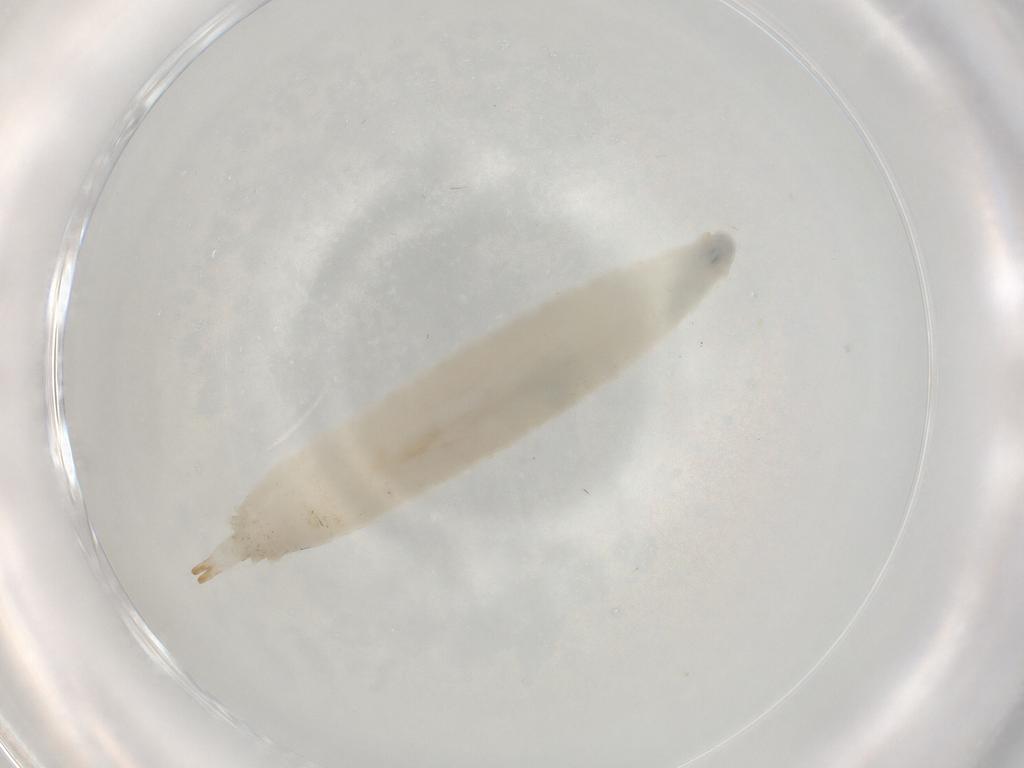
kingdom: Animalia
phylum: Arthropoda
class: Insecta
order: Diptera
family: Drosophilidae
